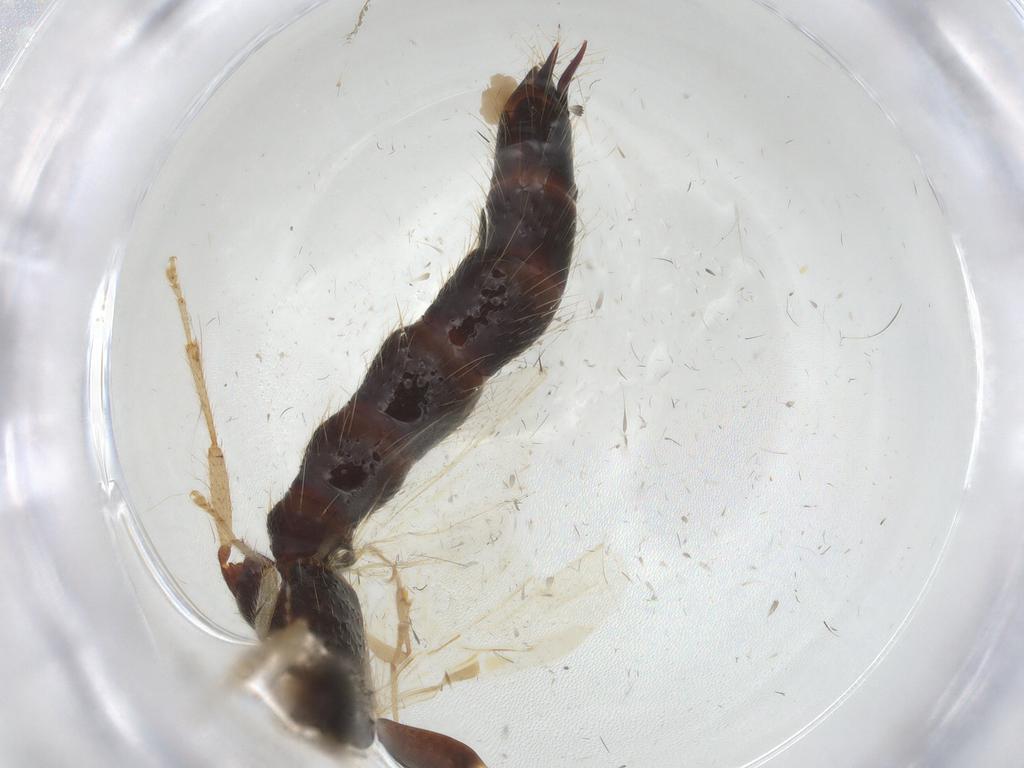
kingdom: Animalia
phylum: Arthropoda
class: Insecta
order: Coleoptera
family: Staphylinidae
